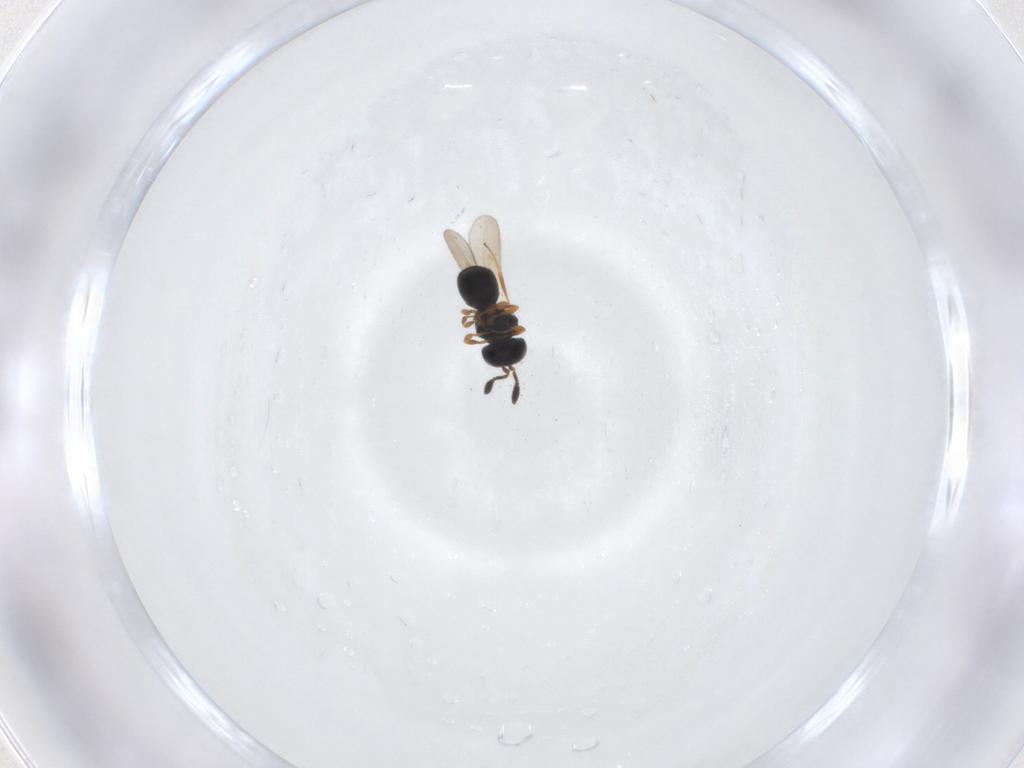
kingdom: Animalia
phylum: Arthropoda
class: Insecta
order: Hymenoptera
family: Scelionidae
